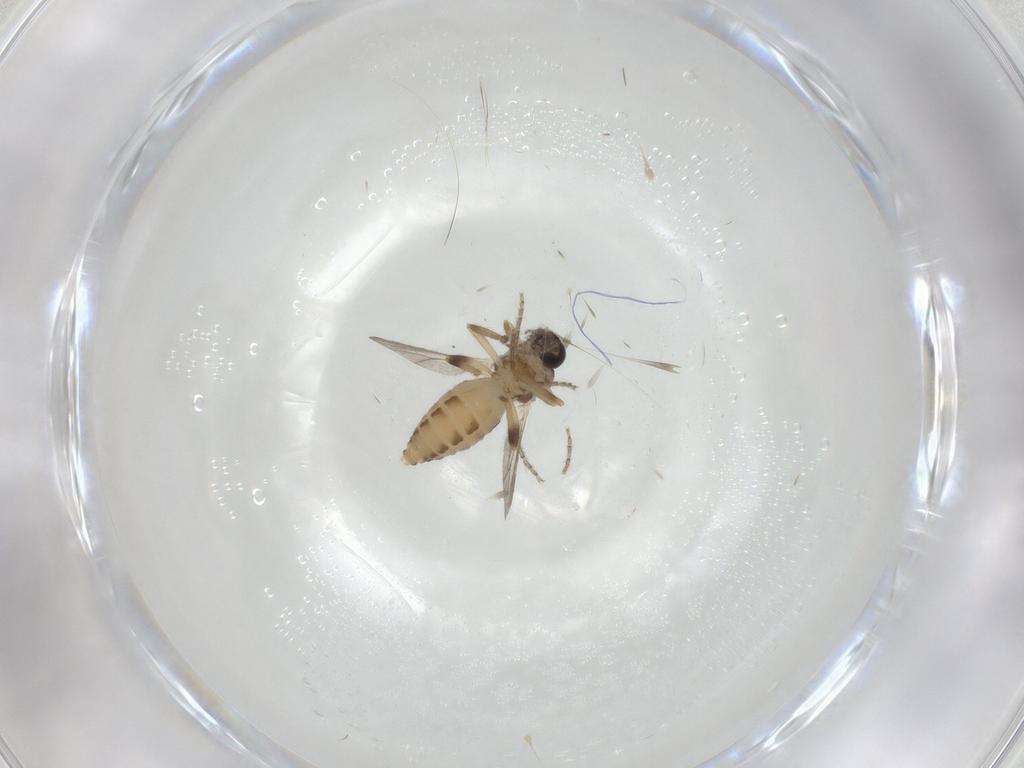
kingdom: Animalia
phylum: Arthropoda
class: Insecta
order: Diptera
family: Ceratopogonidae
